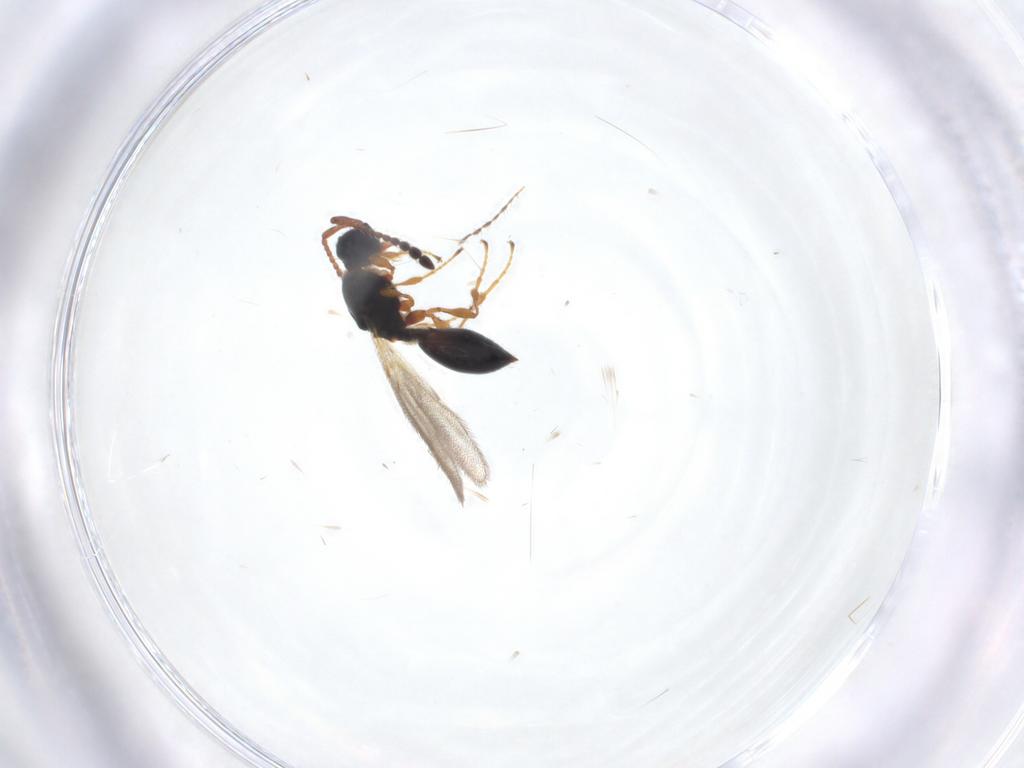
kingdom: Animalia
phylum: Arthropoda
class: Insecta
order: Hymenoptera
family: Diapriidae
